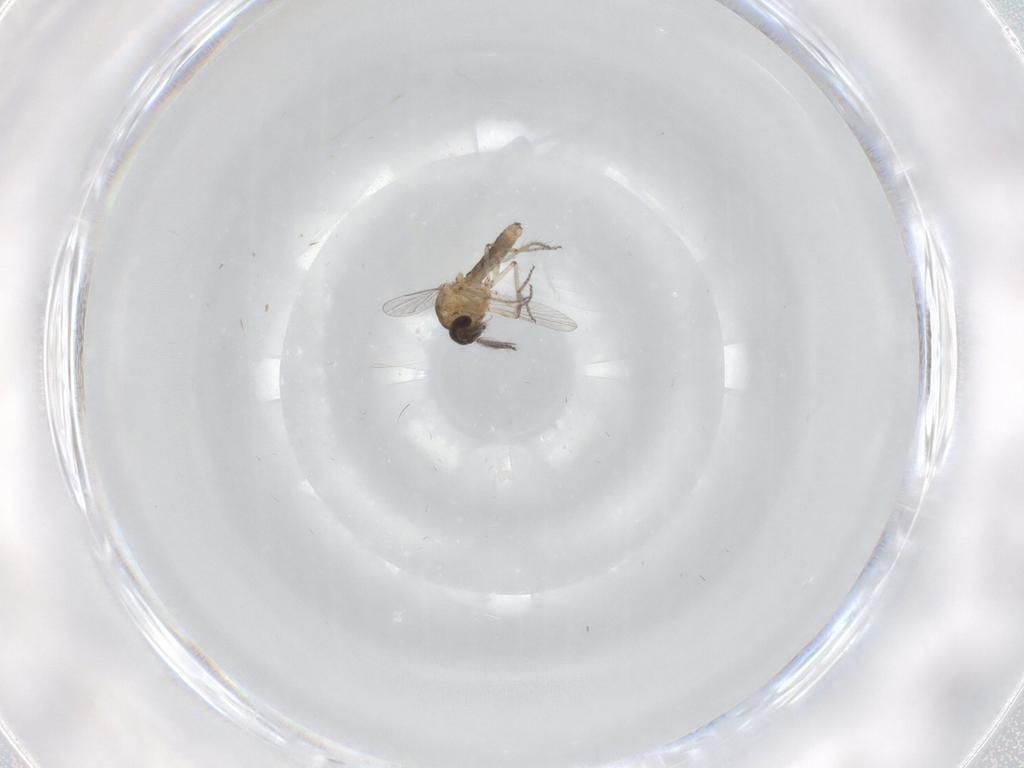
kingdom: Animalia
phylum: Arthropoda
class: Insecta
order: Diptera
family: Ceratopogonidae
